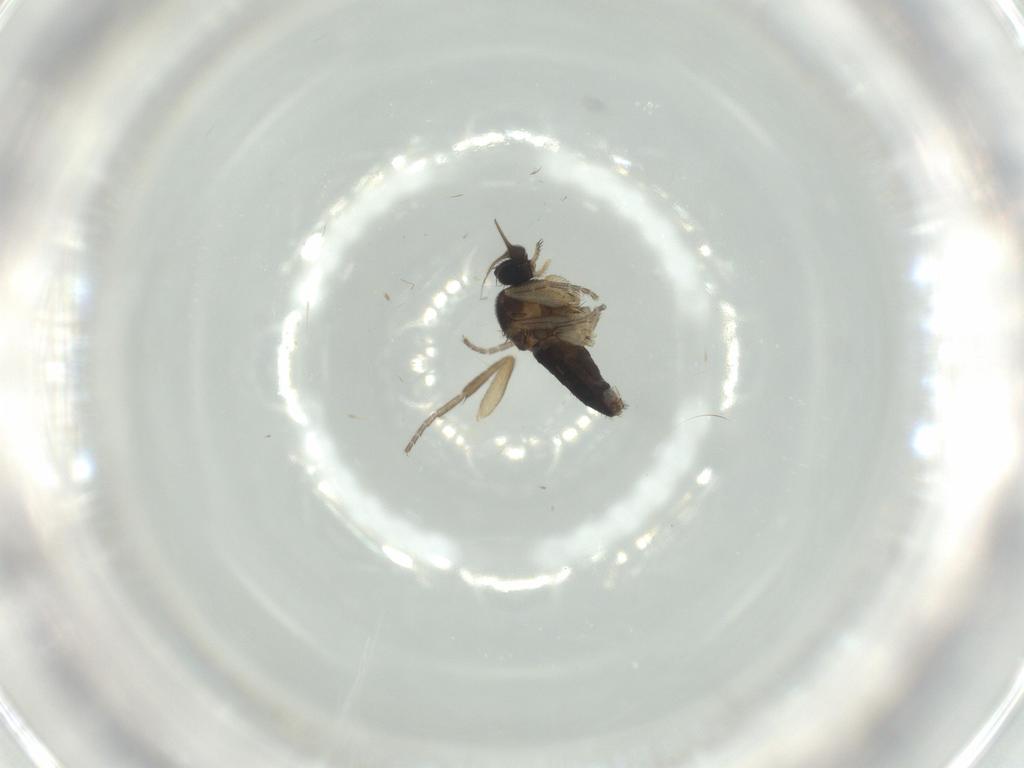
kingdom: Animalia
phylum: Arthropoda
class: Insecta
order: Diptera
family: Phoridae
